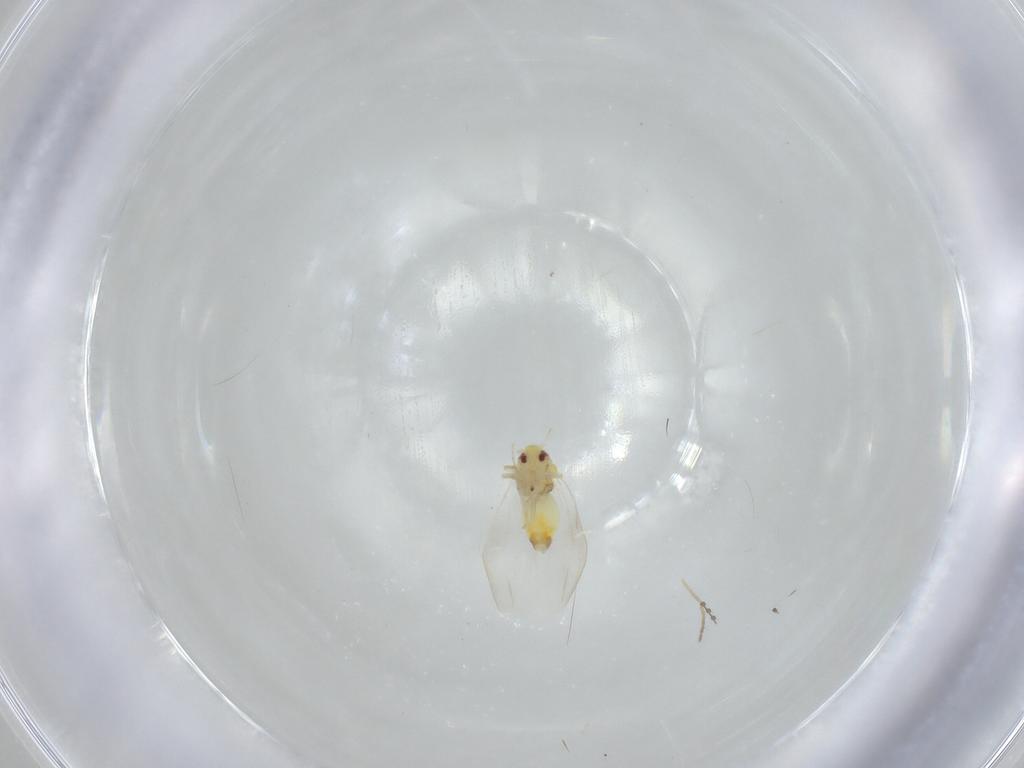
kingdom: Animalia
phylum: Arthropoda
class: Insecta
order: Hemiptera
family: Aleyrodidae
